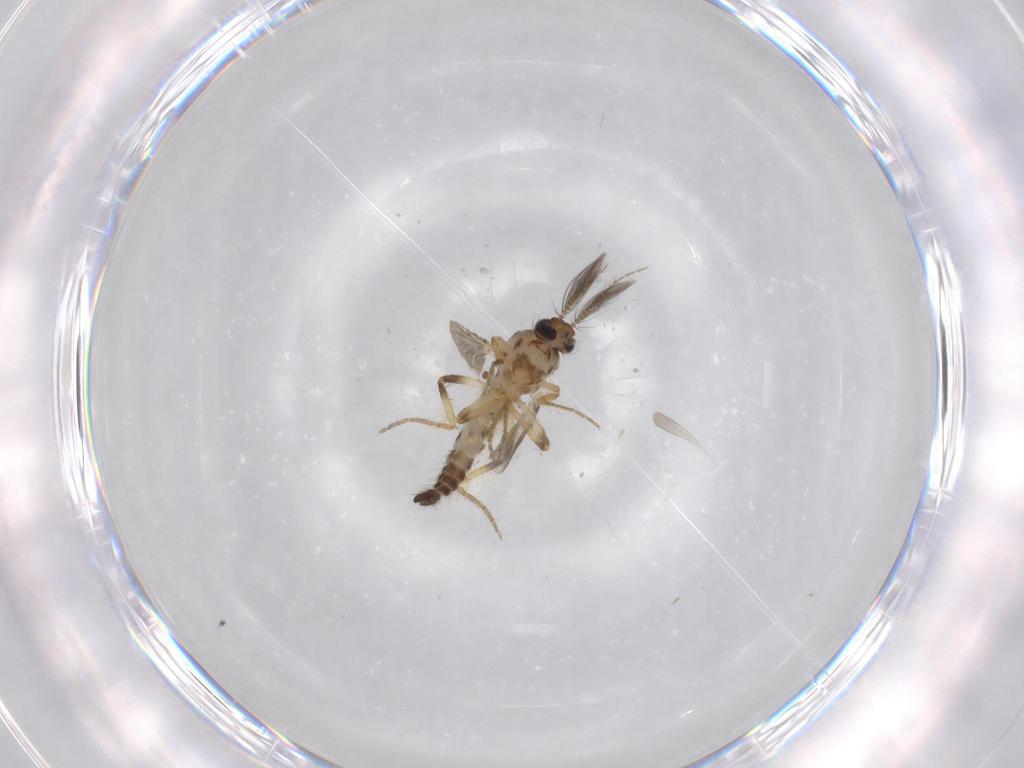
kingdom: Animalia
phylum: Arthropoda
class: Insecta
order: Diptera
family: Ceratopogonidae
